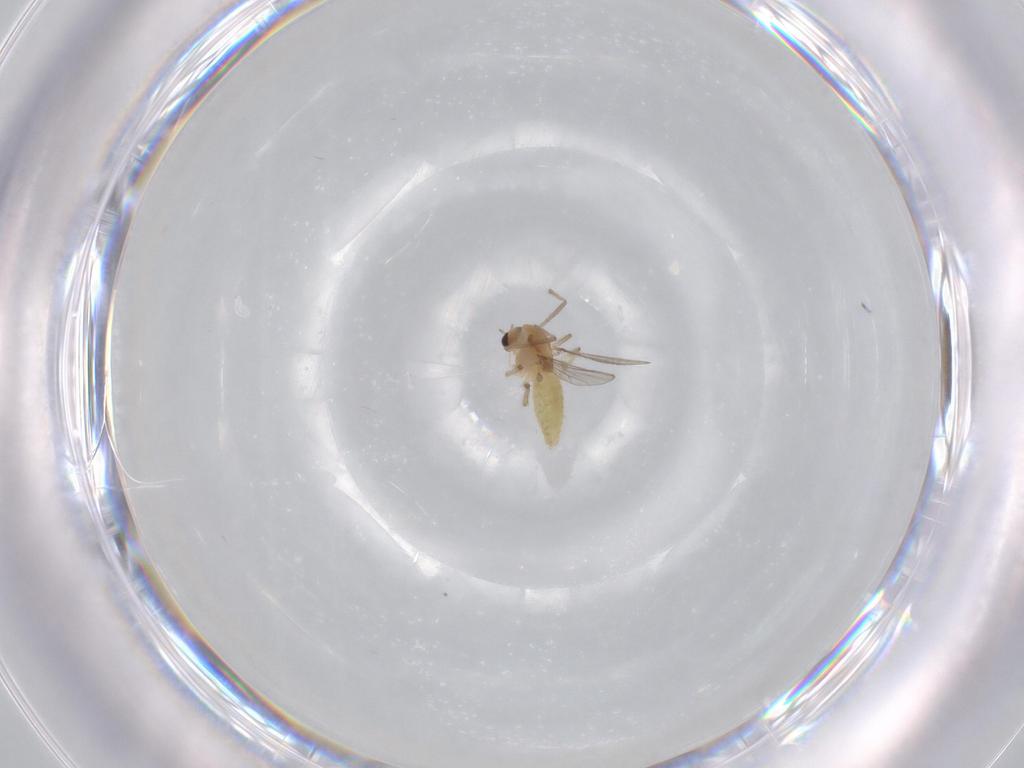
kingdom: Animalia
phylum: Arthropoda
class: Insecta
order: Diptera
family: Chironomidae
